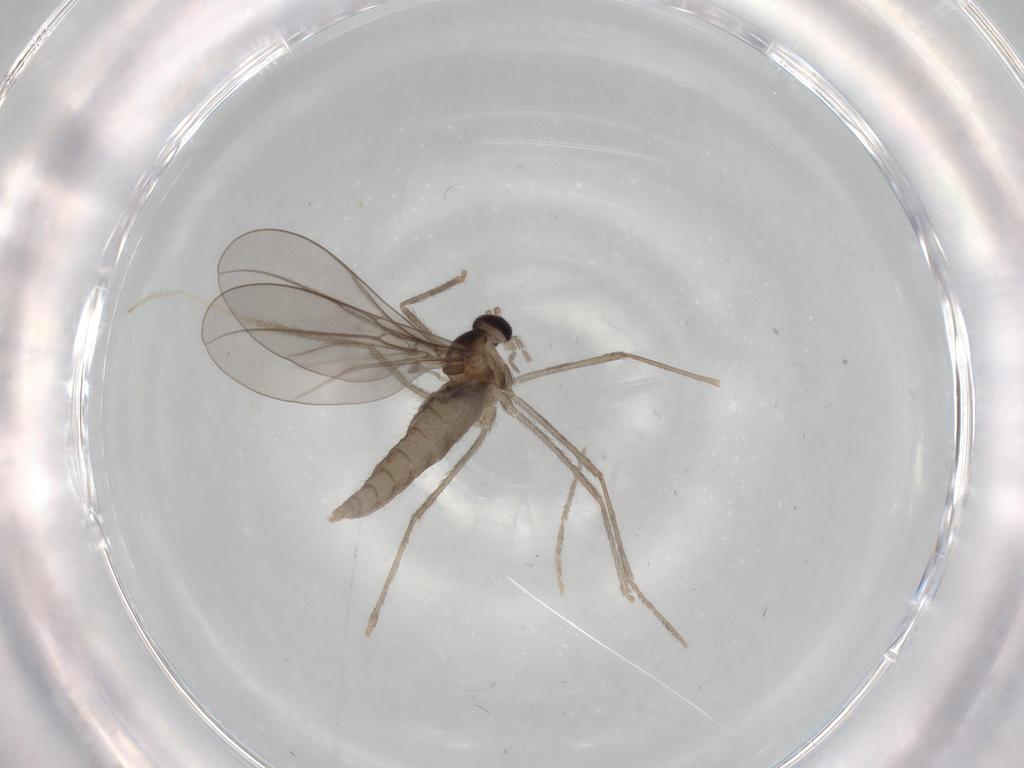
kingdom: Animalia
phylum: Arthropoda
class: Insecta
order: Diptera
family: Cecidomyiidae
